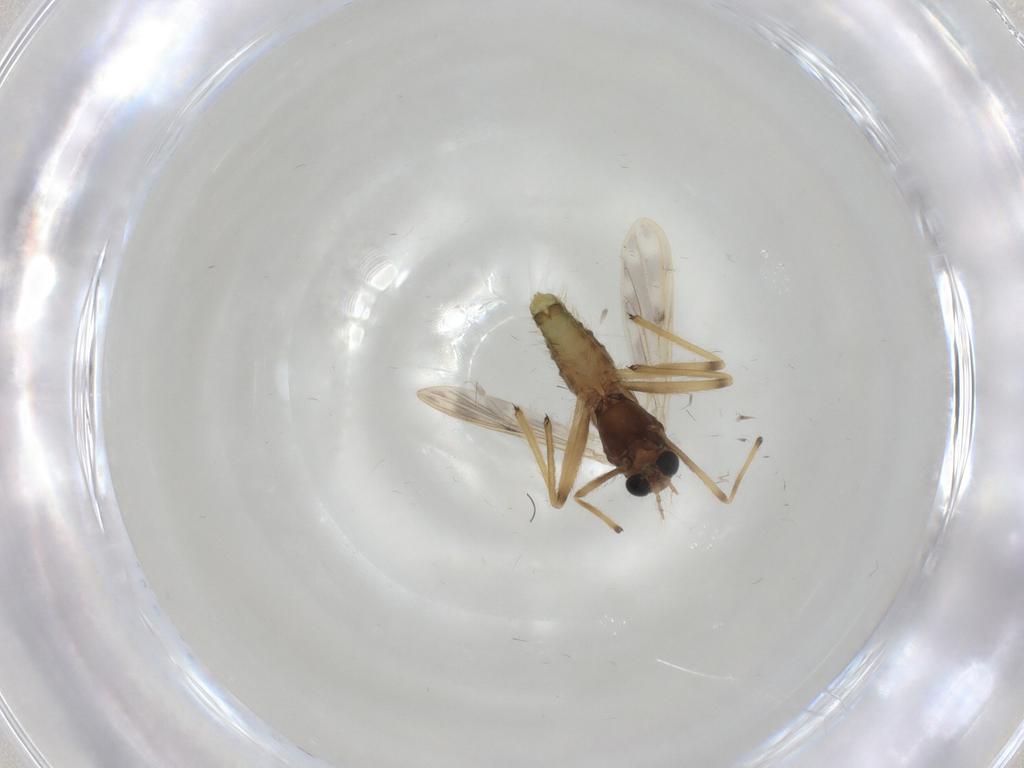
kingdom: Animalia
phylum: Arthropoda
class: Insecta
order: Diptera
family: Chironomidae
